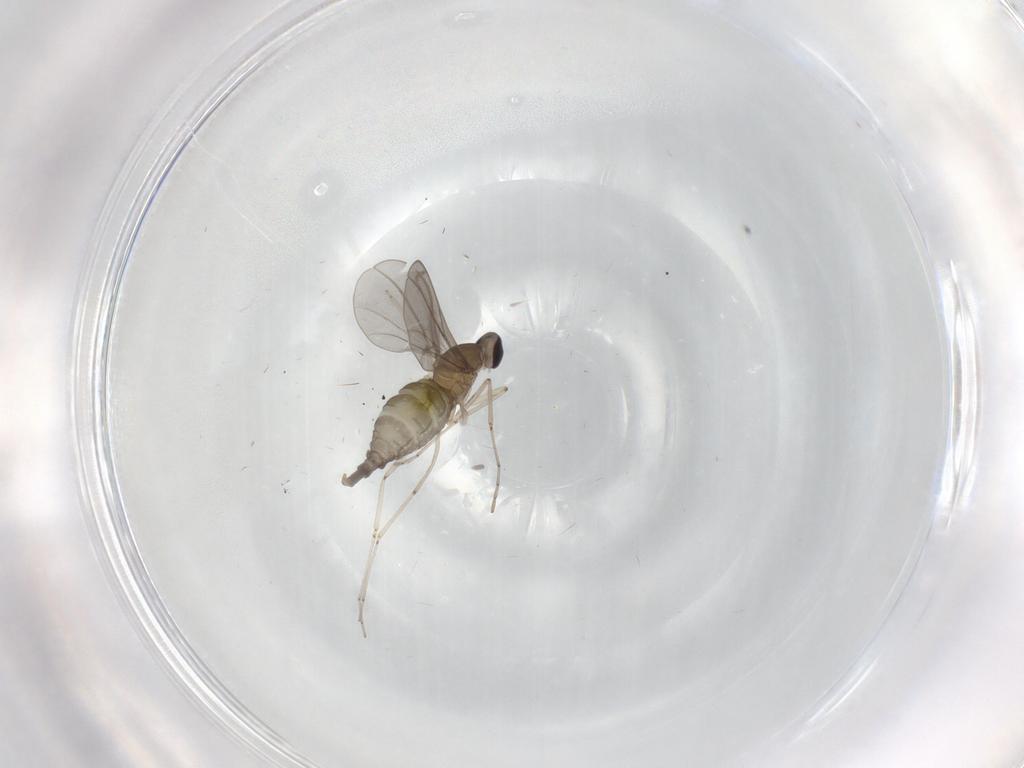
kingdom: Animalia
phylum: Arthropoda
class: Insecta
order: Diptera
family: Cecidomyiidae
